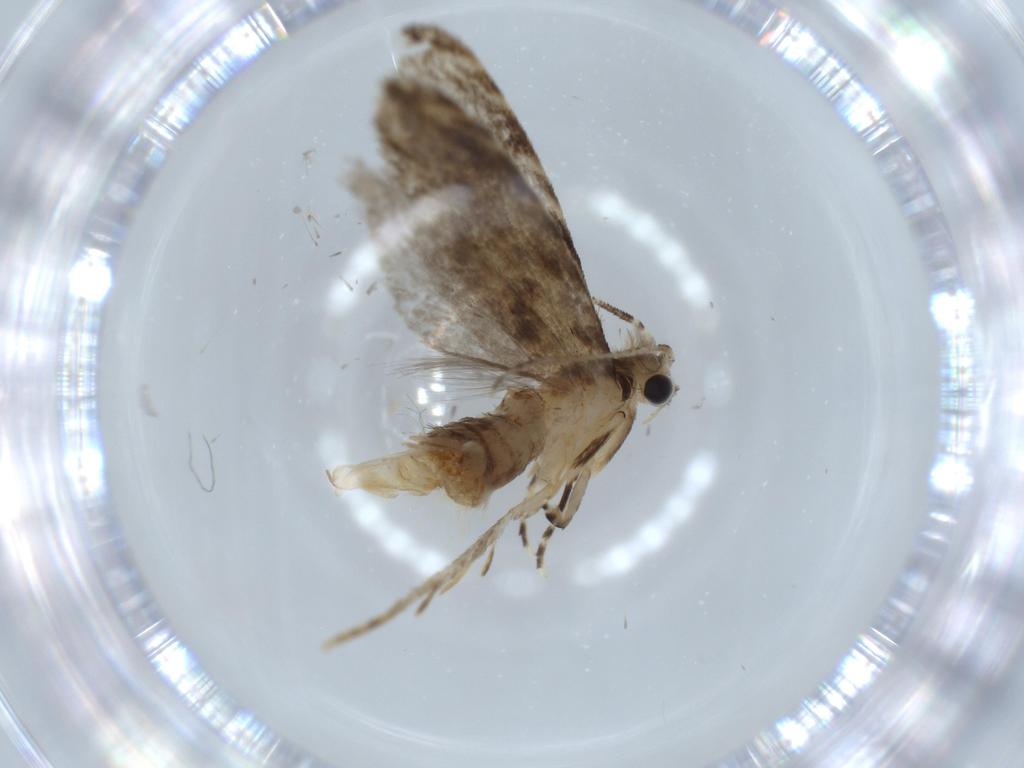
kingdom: Animalia
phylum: Arthropoda
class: Insecta
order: Lepidoptera
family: Tineidae
